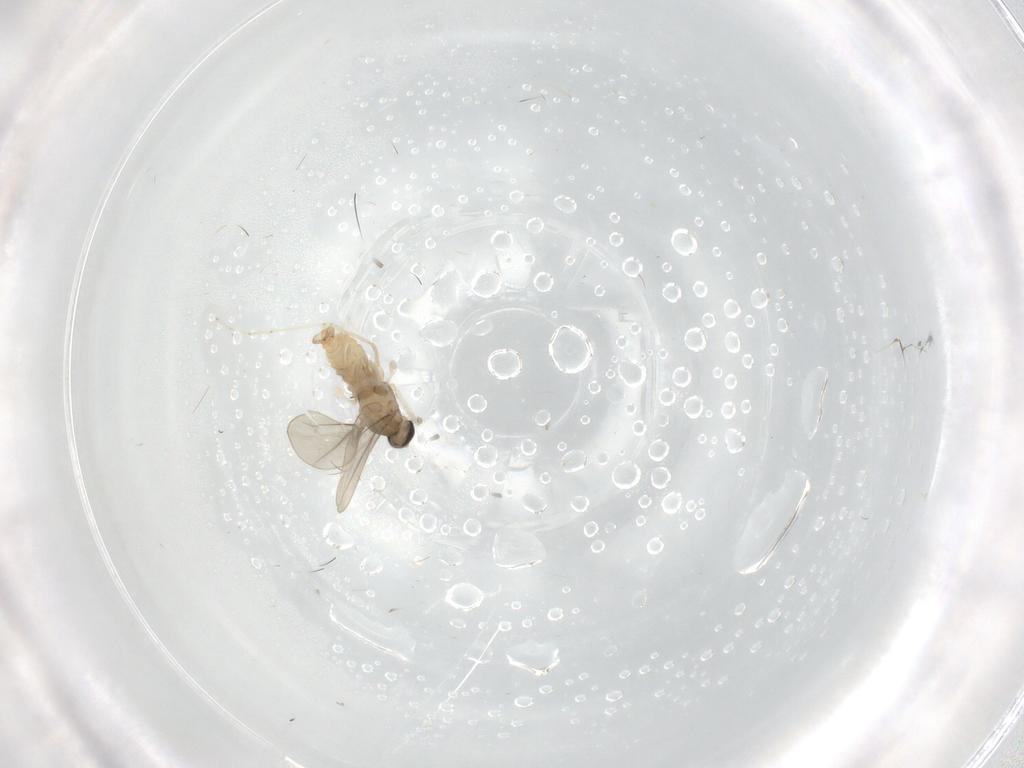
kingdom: Animalia
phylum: Arthropoda
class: Insecta
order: Diptera
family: Cecidomyiidae
